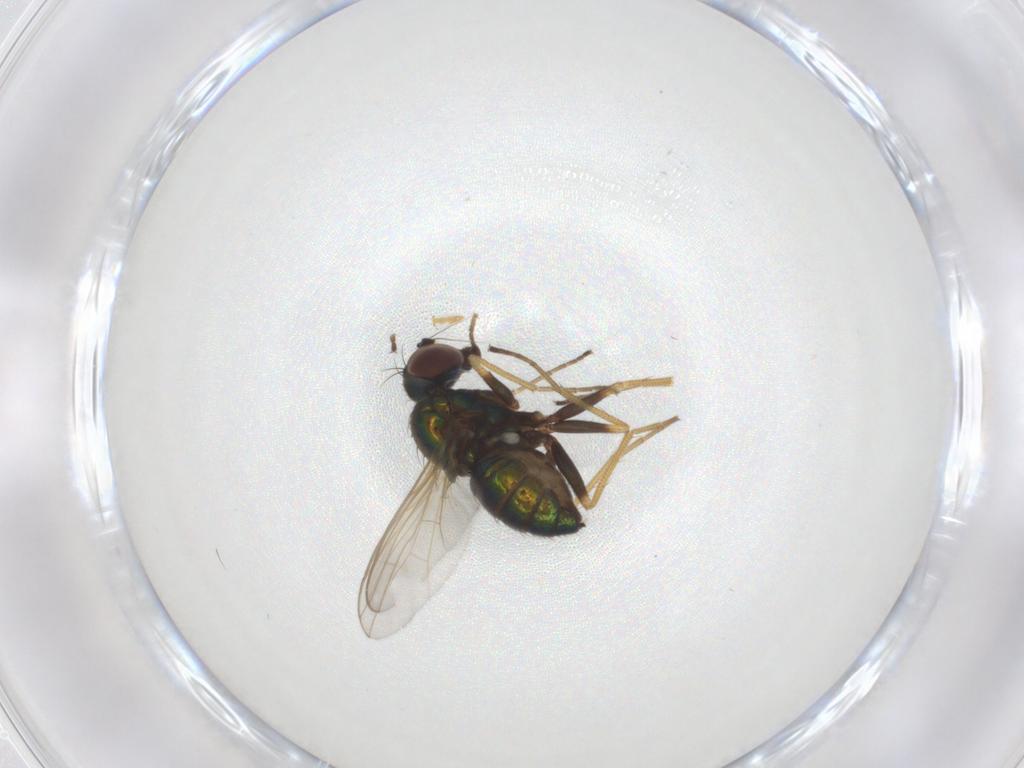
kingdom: Animalia
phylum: Arthropoda
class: Insecta
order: Diptera
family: Dolichopodidae
